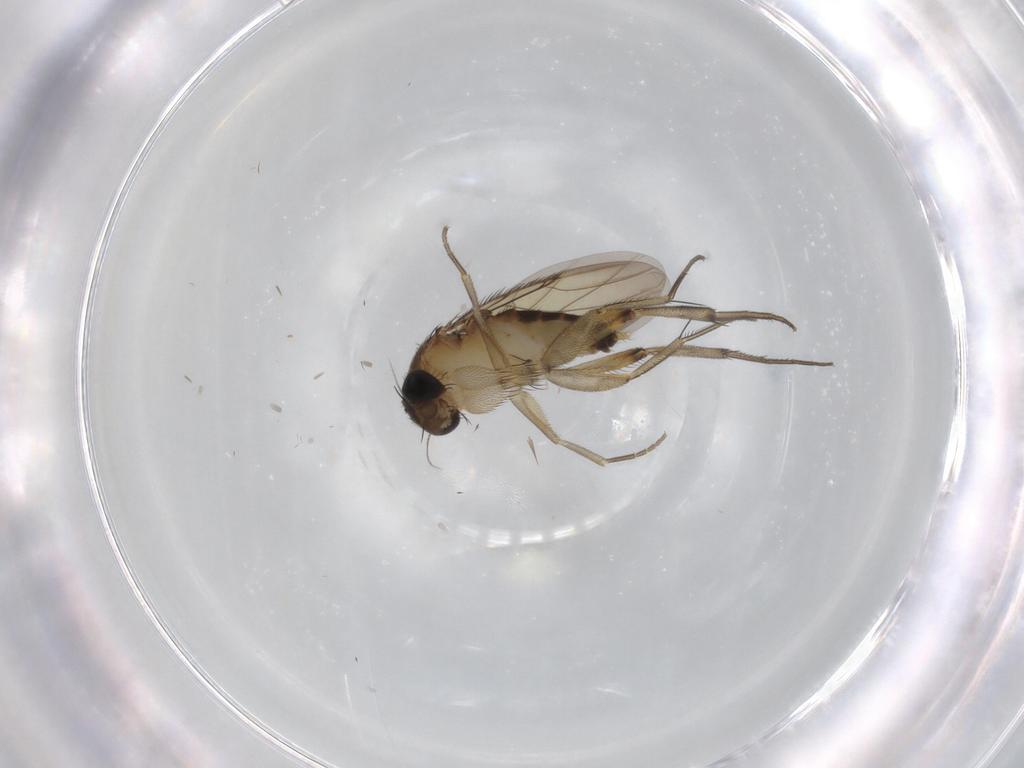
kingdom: Animalia
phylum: Arthropoda
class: Insecta
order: Diptera
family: Phoridae
